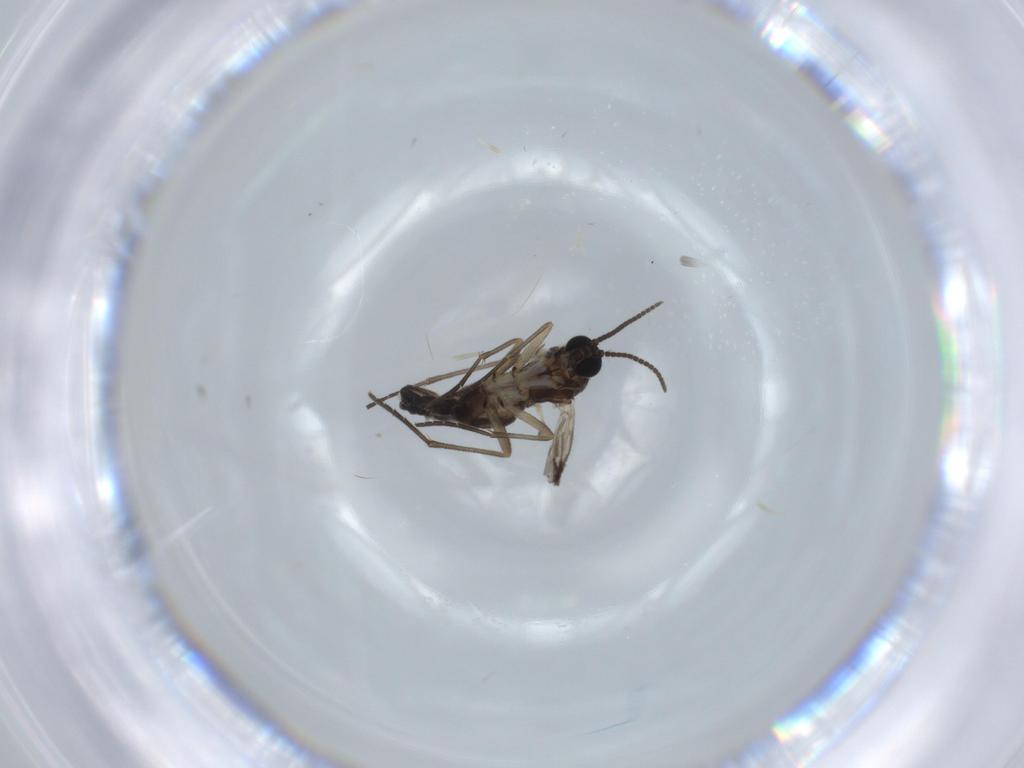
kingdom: Animalia
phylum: Arthropoda
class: Insecta
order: Diptera
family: Sciaridae
